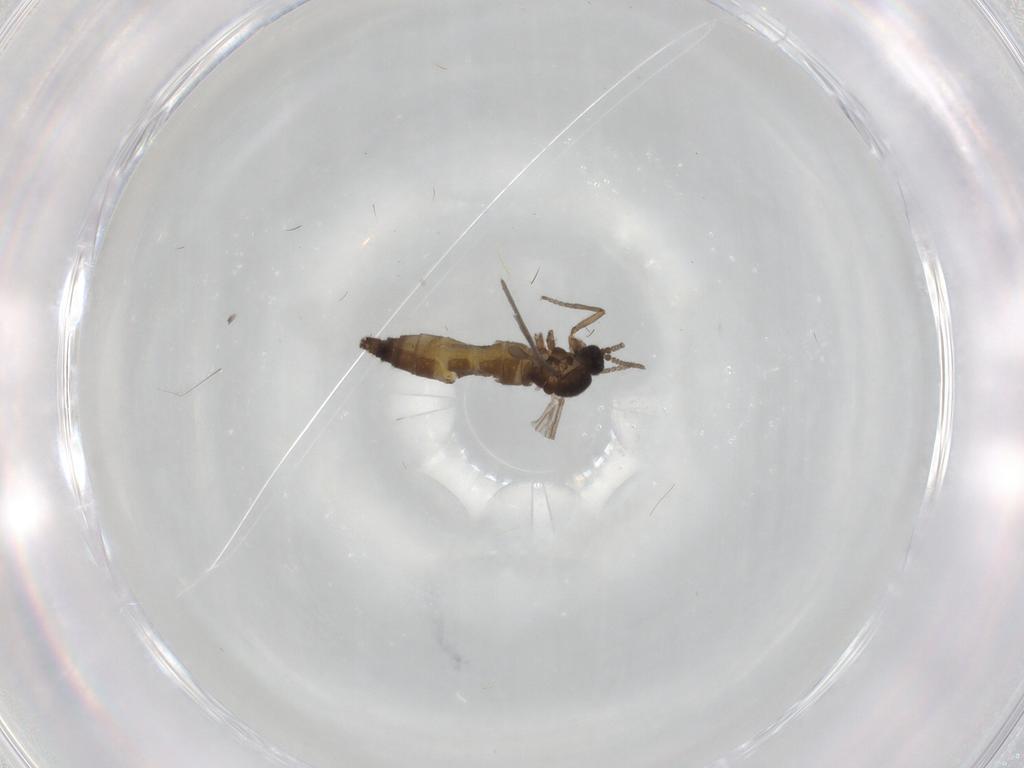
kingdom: Animalia
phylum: Arthropoda
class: Insecta
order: Diptera
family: Sciaridae
